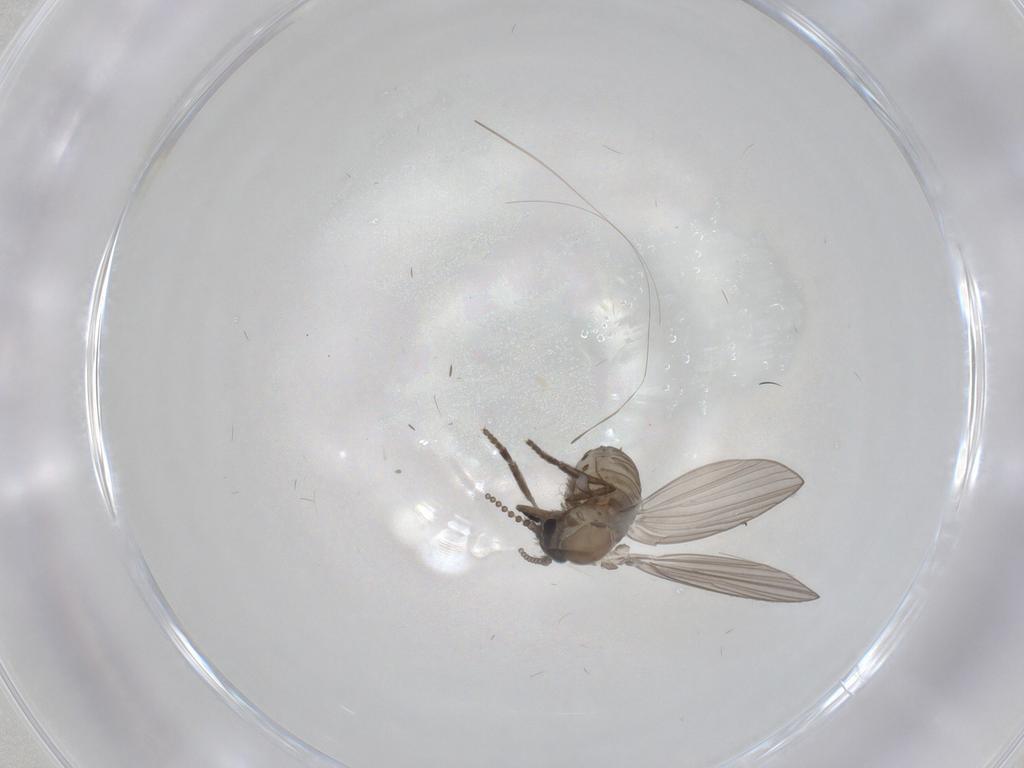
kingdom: Animalia
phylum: Arthropoda
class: Insecta
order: Diptera
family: Psychodidae
